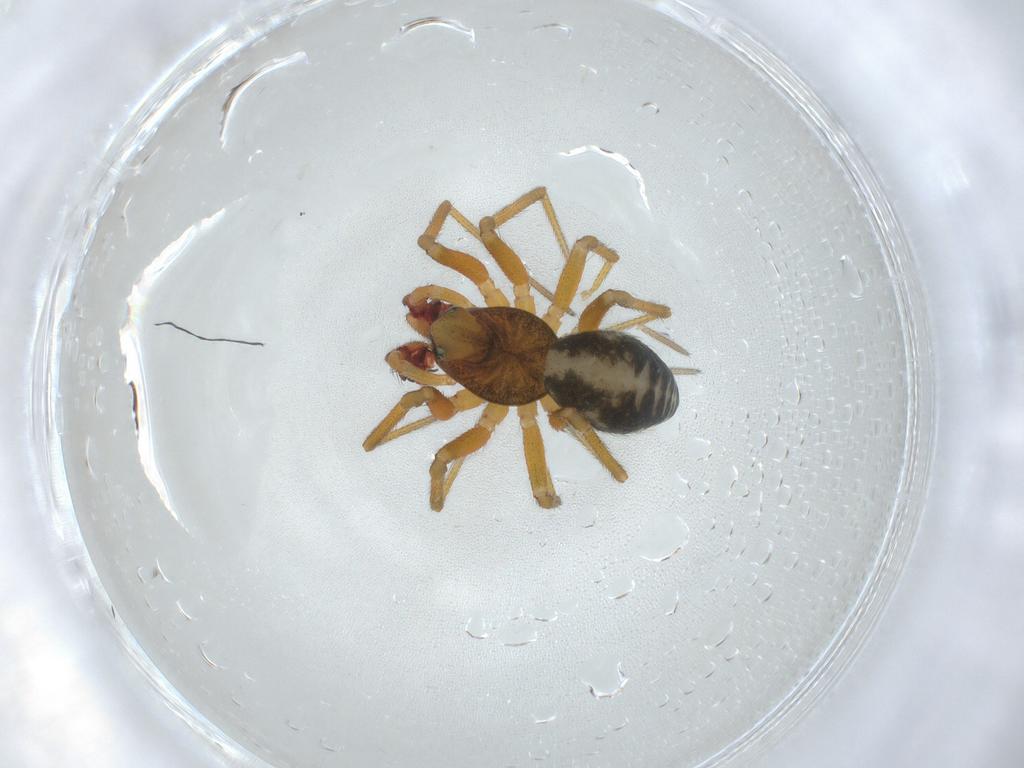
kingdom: Animalia
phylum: Arthropoda
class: Arachnida
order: Araneae
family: Linyphiidae
